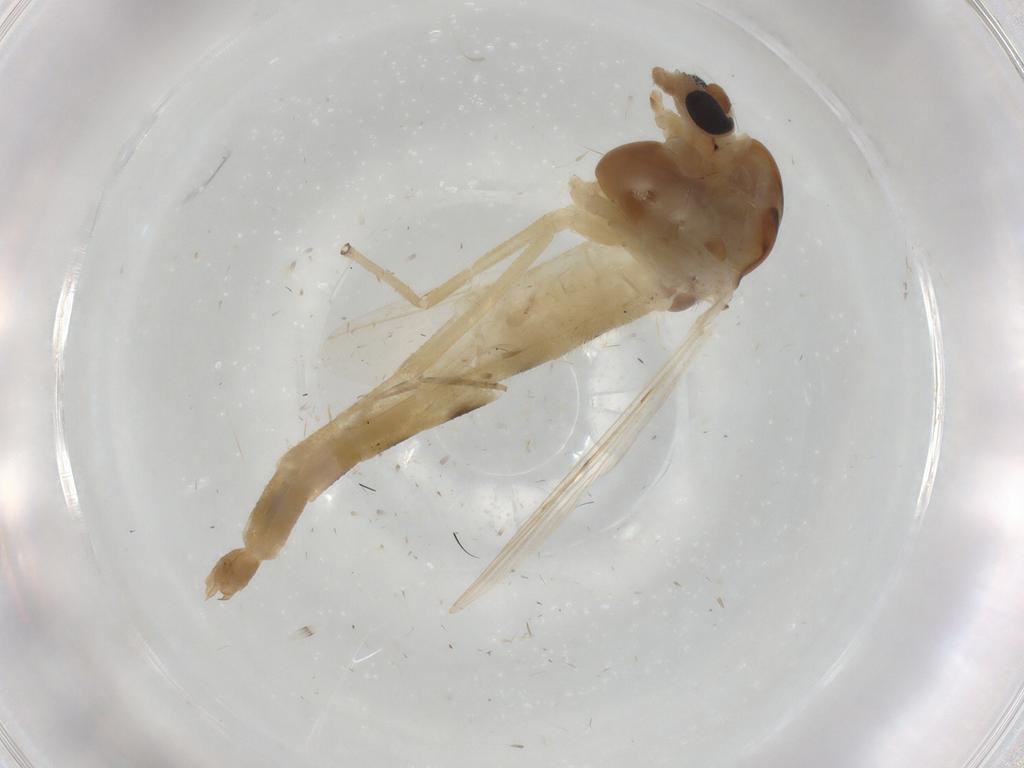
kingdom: Animalia
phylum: Arthropoda
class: Insecta
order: Diptera
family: Chironomidae
